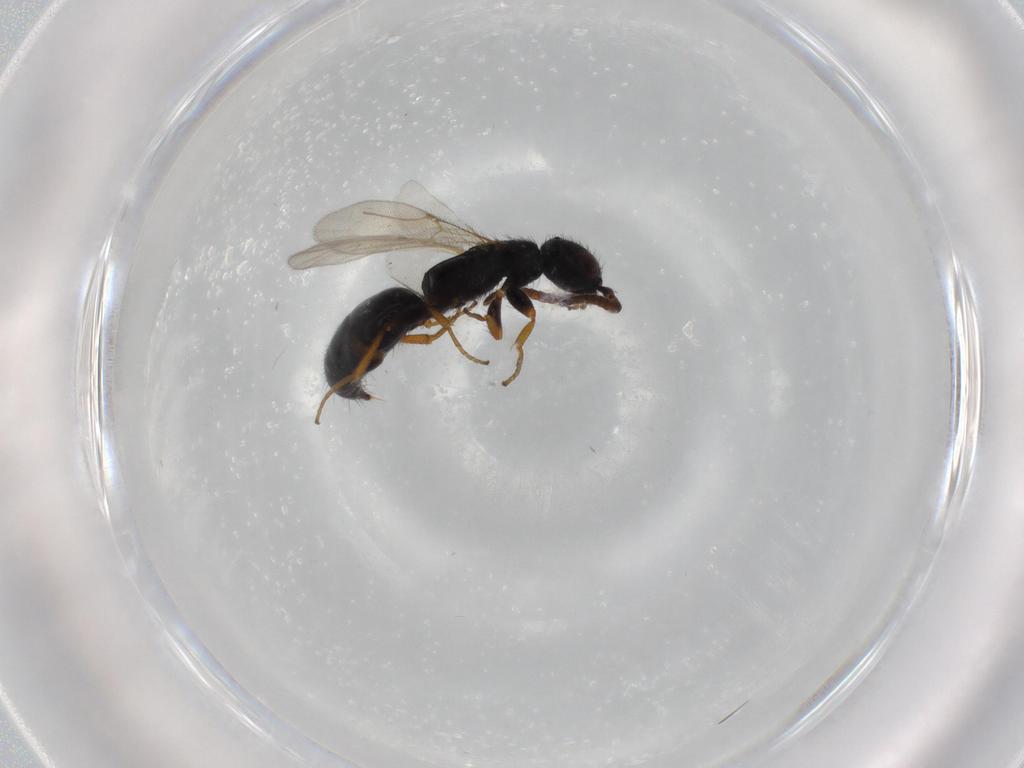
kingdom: Animalia
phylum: Arthropoda
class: Insecta
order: Hymenoptera
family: Bethylidae
